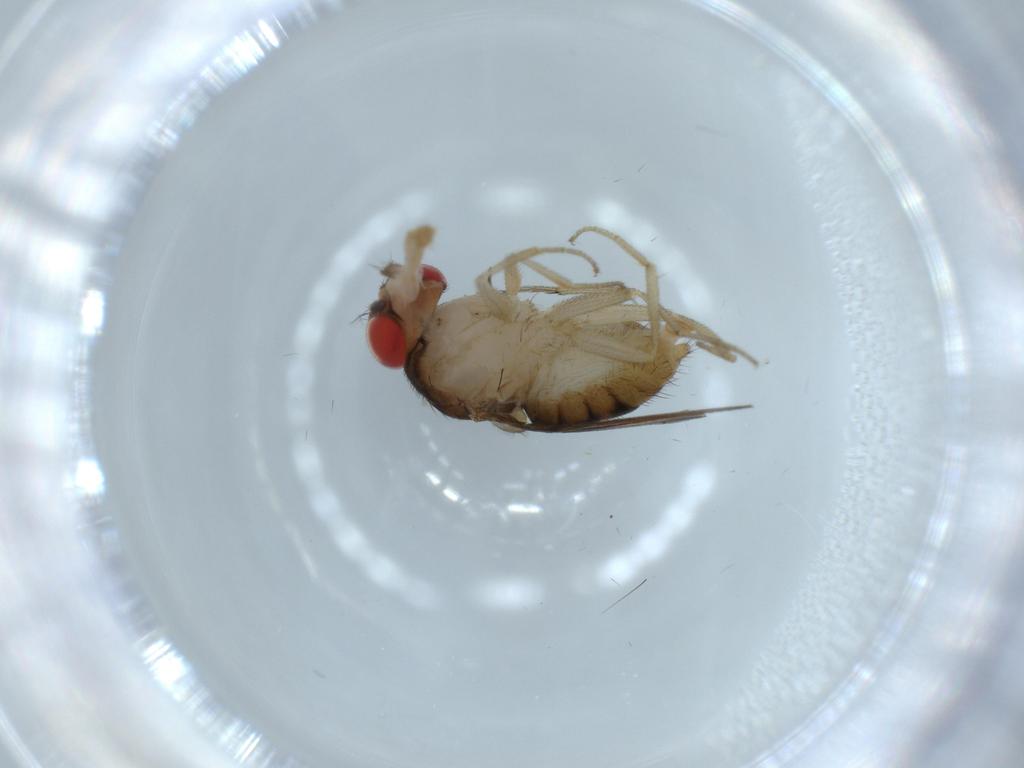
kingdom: Animalia
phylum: Arthropoda
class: Insecta
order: Diptera
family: Drosophilidae
